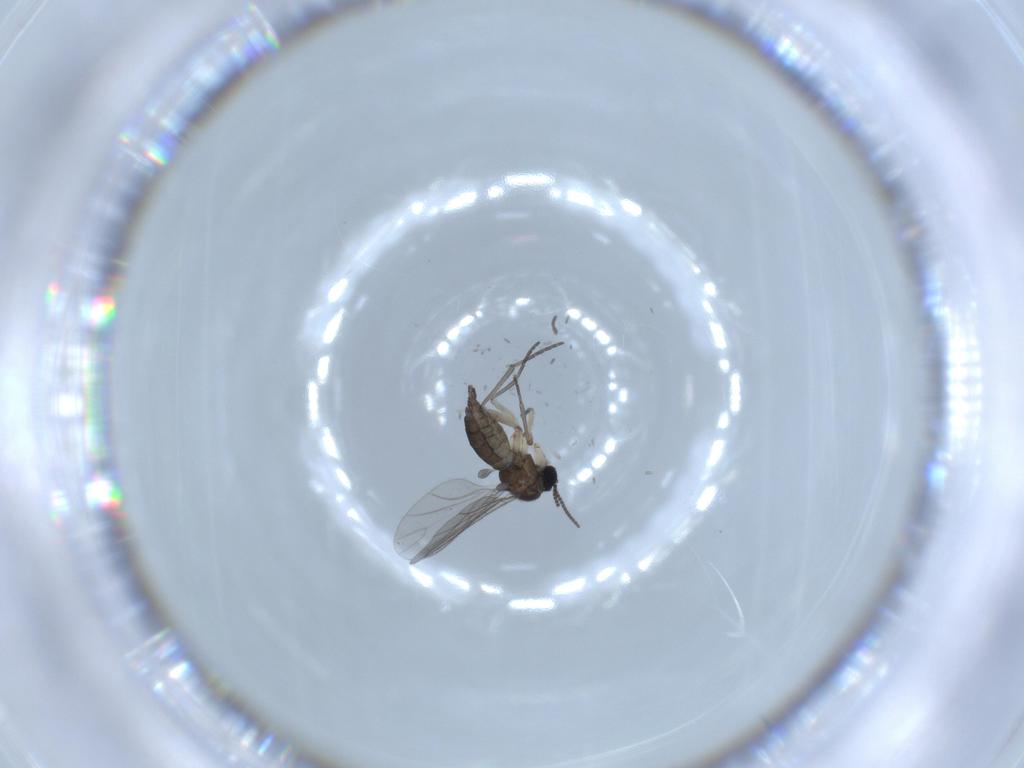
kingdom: Animalia
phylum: Arthropoda
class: Insecta
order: Diptera
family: Sciaridae
